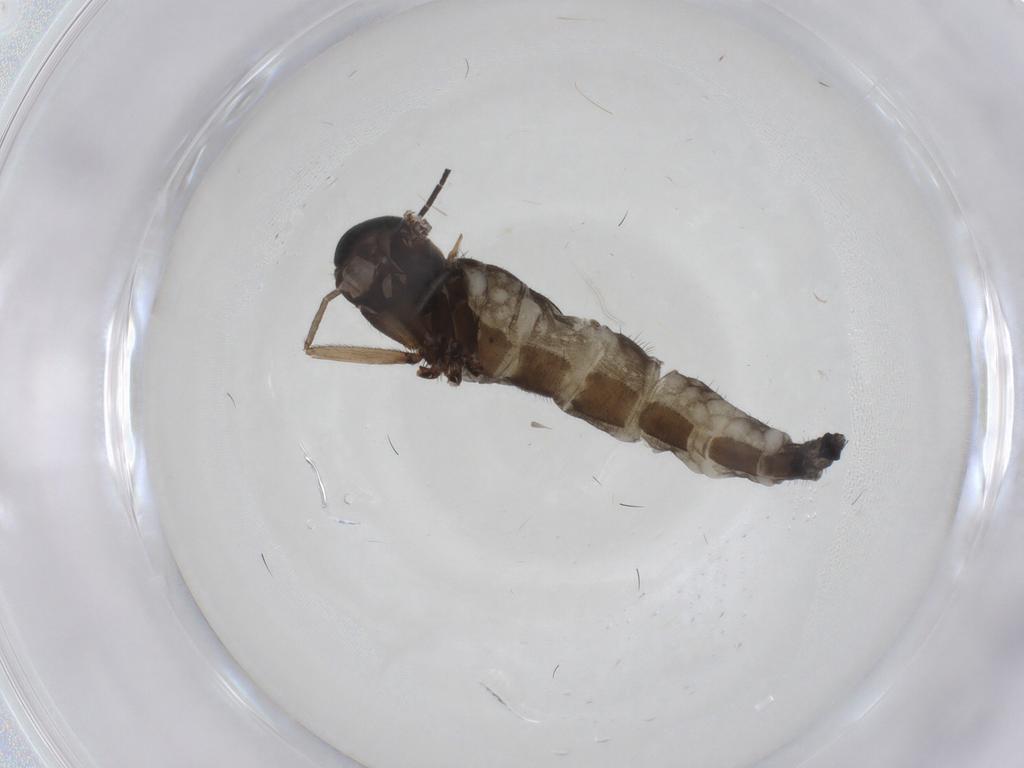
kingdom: Animalia
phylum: Arthropoda
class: Insecta
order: Diptera
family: Sciaridae
